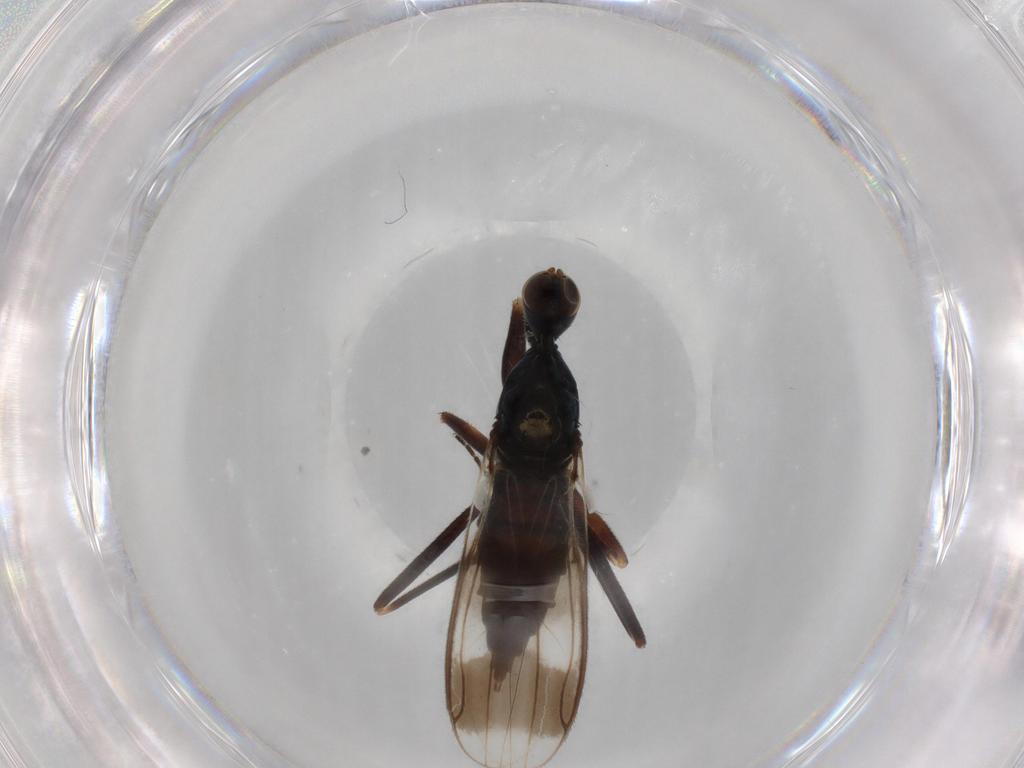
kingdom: Animalia
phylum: Arthropoda
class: Insecta
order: Diptera
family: Hybotidae
